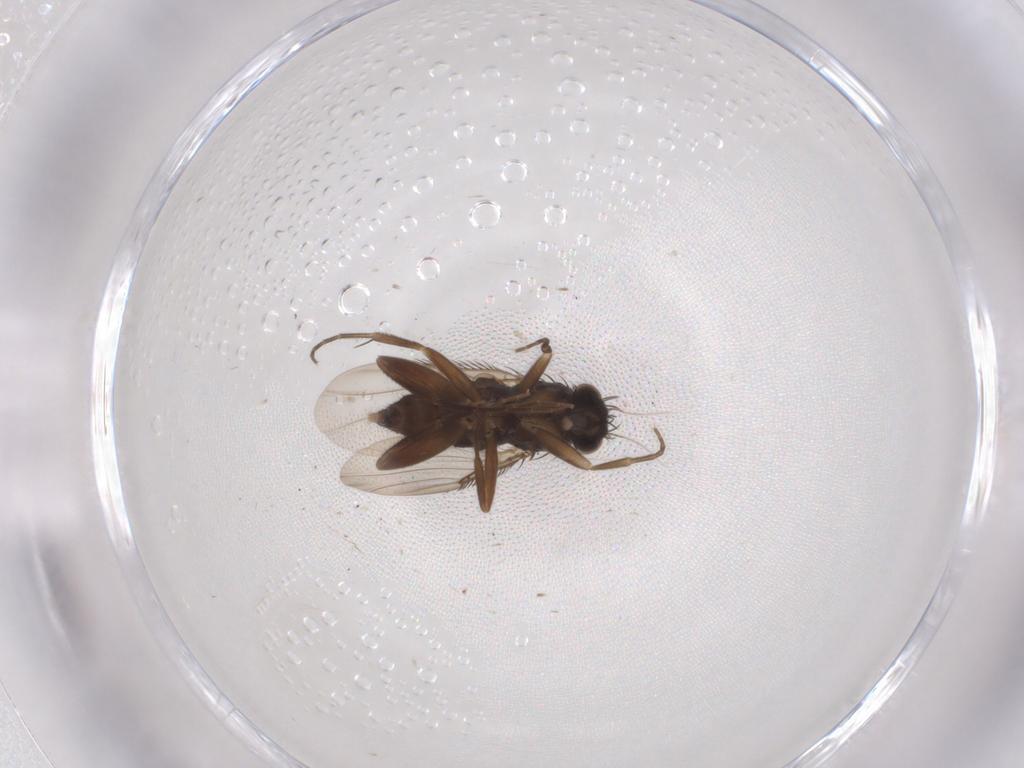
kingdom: Animalia
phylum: Arthropoda
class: Insecta
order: Diptera
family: Phoridae
